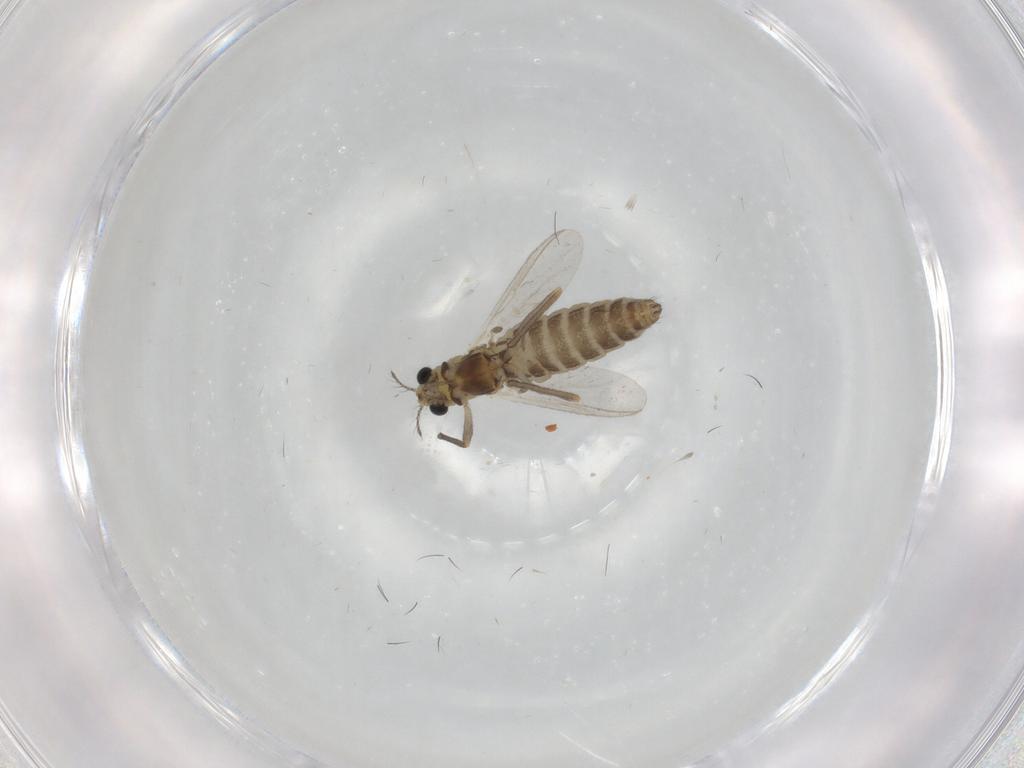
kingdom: Animalia
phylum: Arthropoda
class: Insecta
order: Diptera
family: Chironomidae
